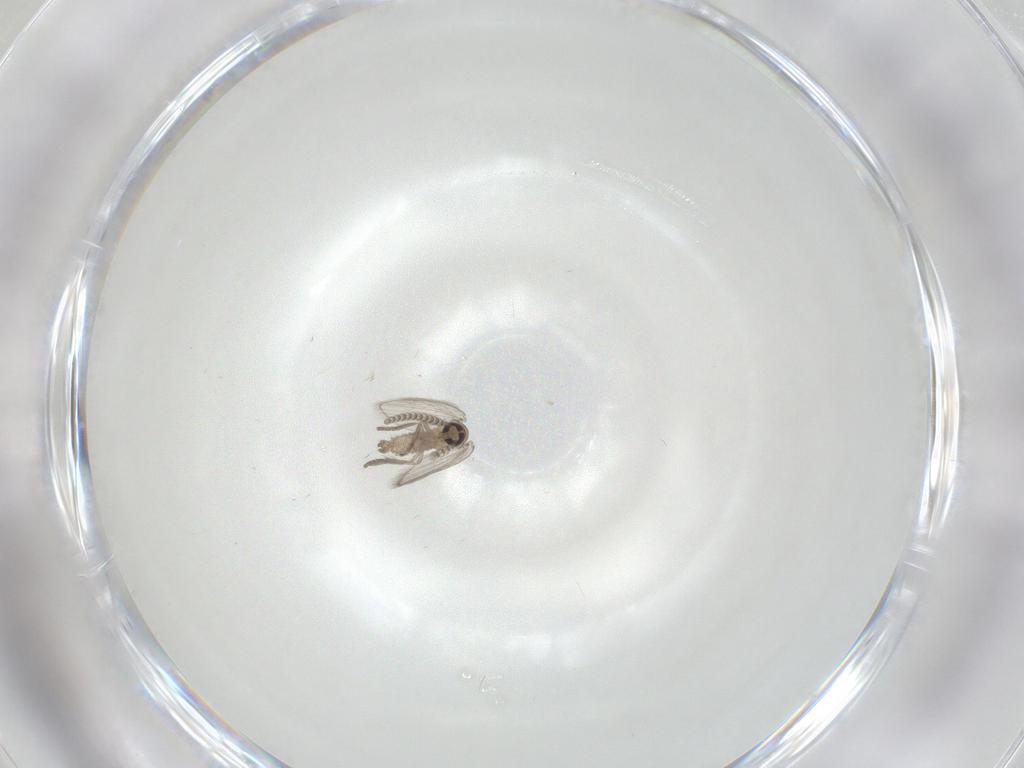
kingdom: Animalia
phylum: Arthropoda
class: Insecta
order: Diptera
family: Psychodidae
